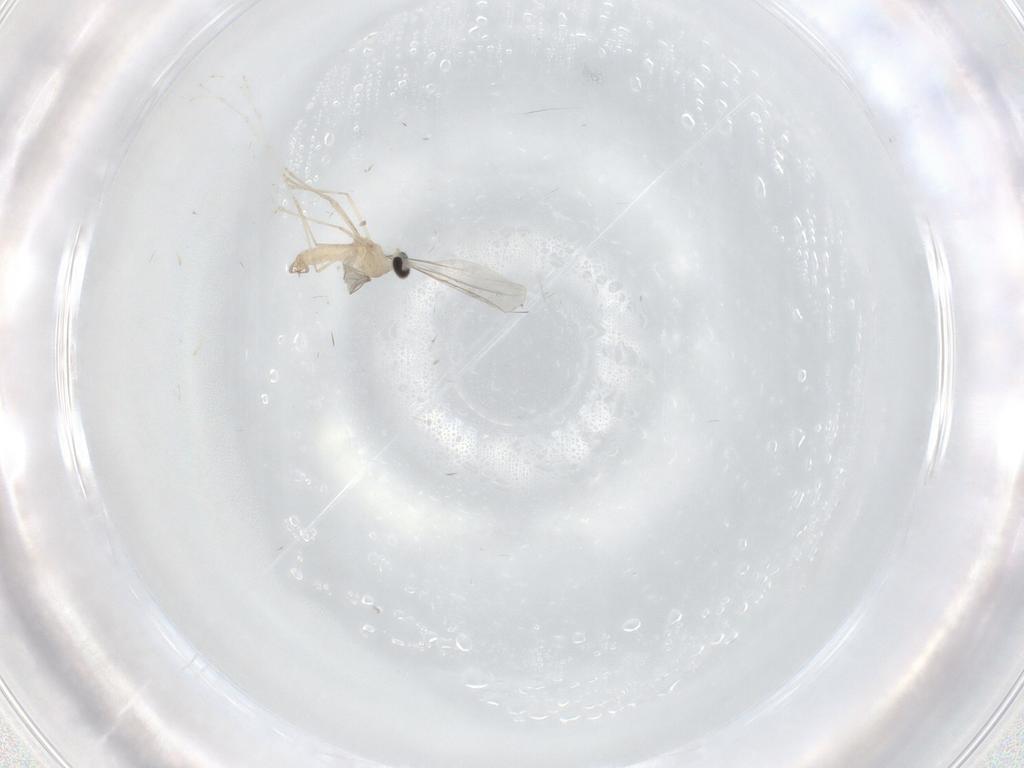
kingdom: Animalia
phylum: Arthropoda
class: Insecta
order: Diptera
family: Cecidomyiidae
